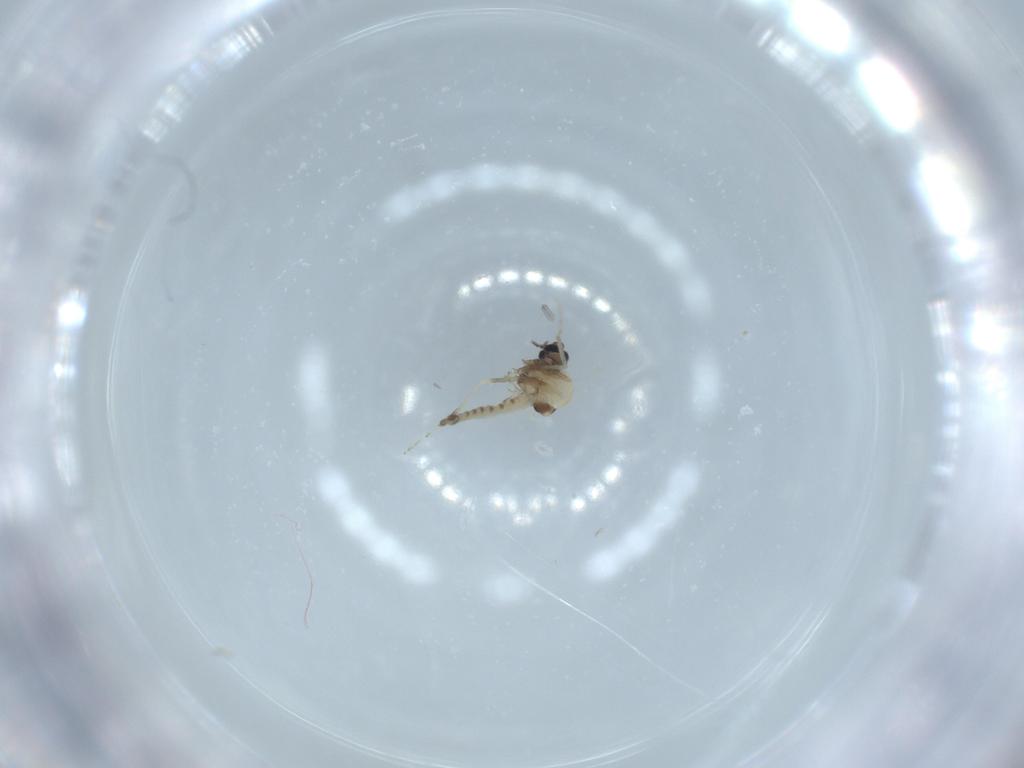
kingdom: Animalia
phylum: Arthropoda
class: Insecta
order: Diptera
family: Cecidomyiidae
